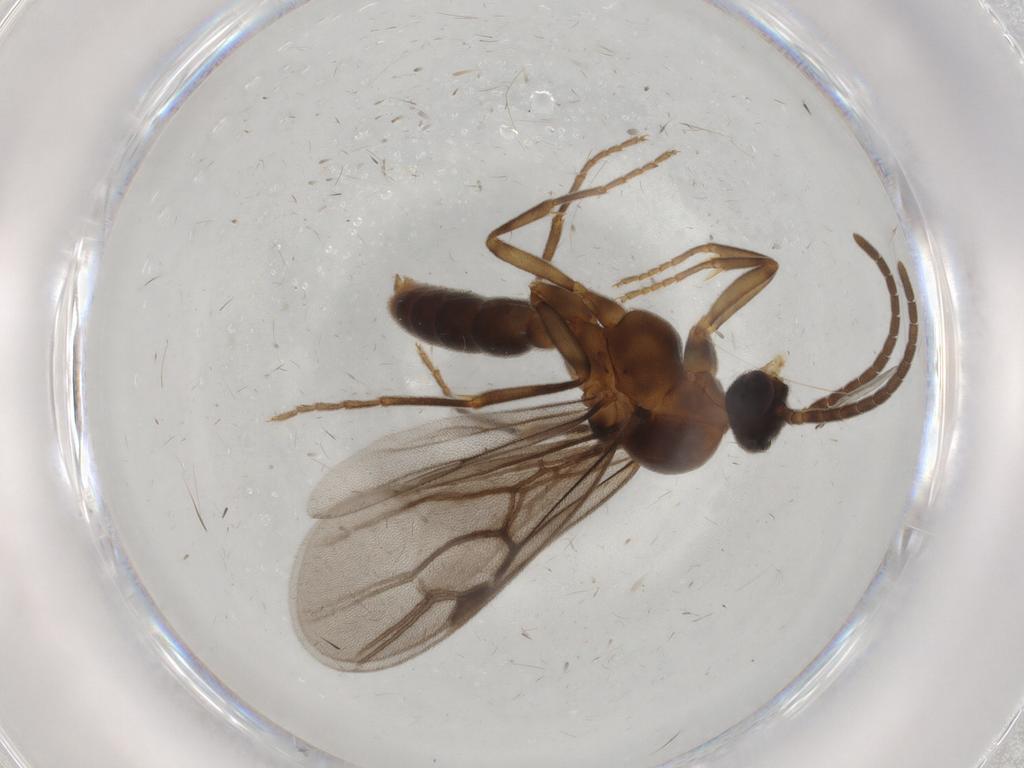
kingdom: Animalia
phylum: Arthropoda
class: Insecta
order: Hymenoptera
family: Formicidae
